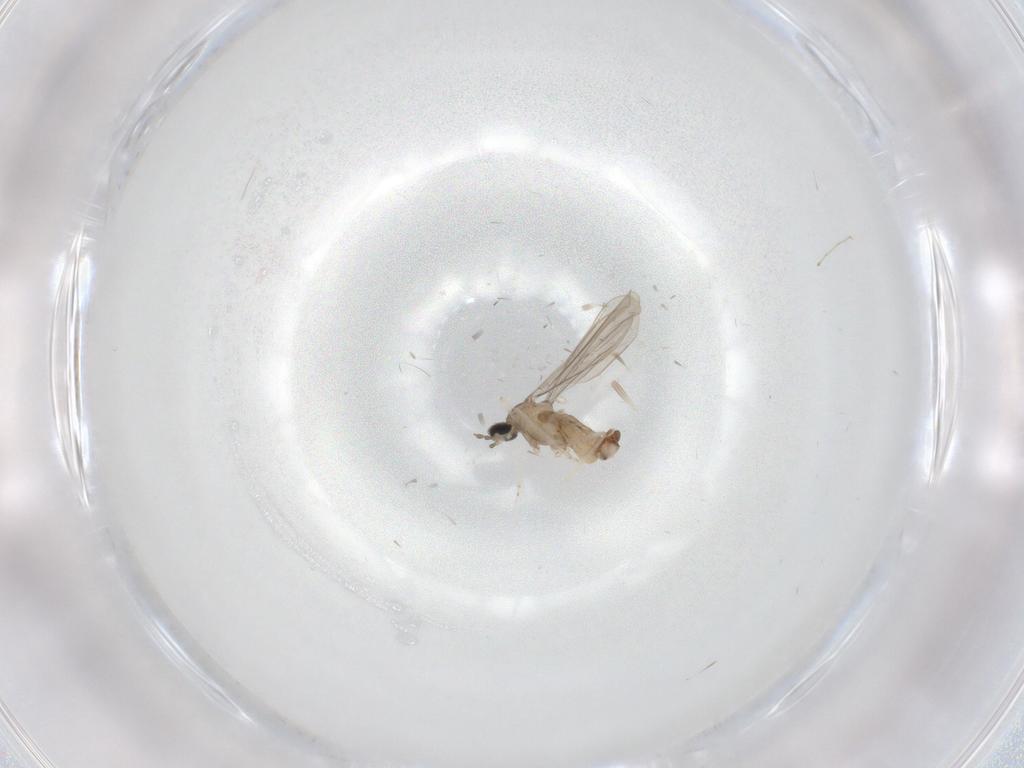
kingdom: Animalia
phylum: Arthropoda
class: Insecta
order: Diptera
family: Cecidomyiidae
